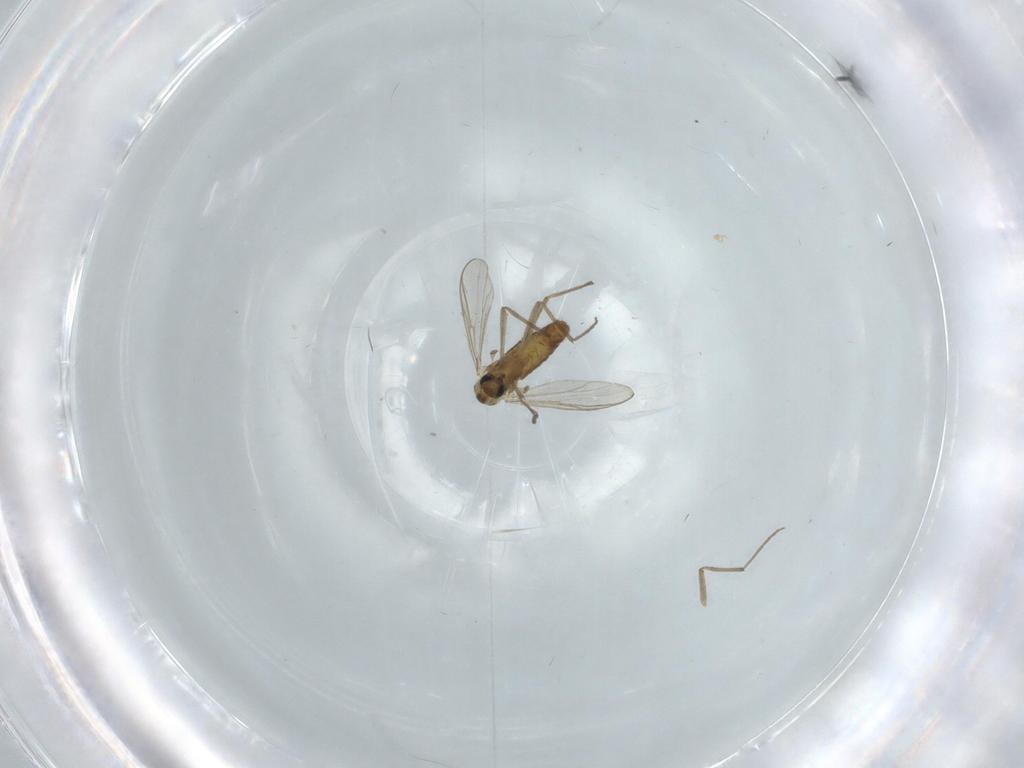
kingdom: Animalia
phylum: Arthropoda
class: Insecta
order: Diptera
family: Chironomidae
